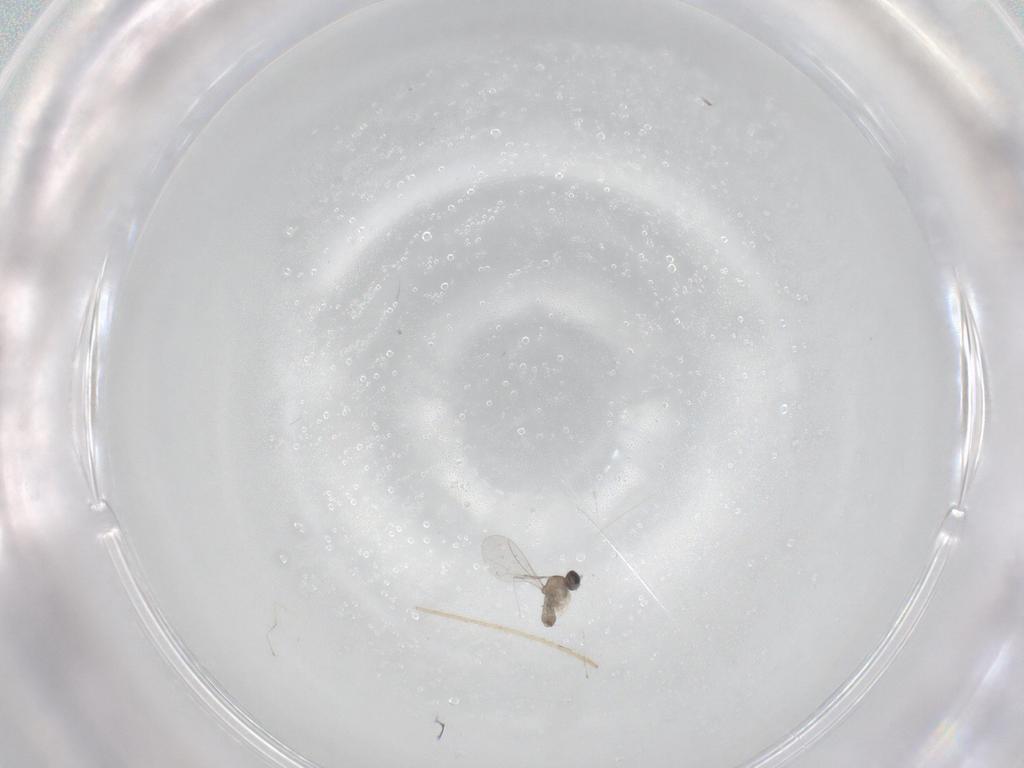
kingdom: Animalia
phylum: Arthropoda
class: Insecta
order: Diptera
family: Cecidomyiidae
